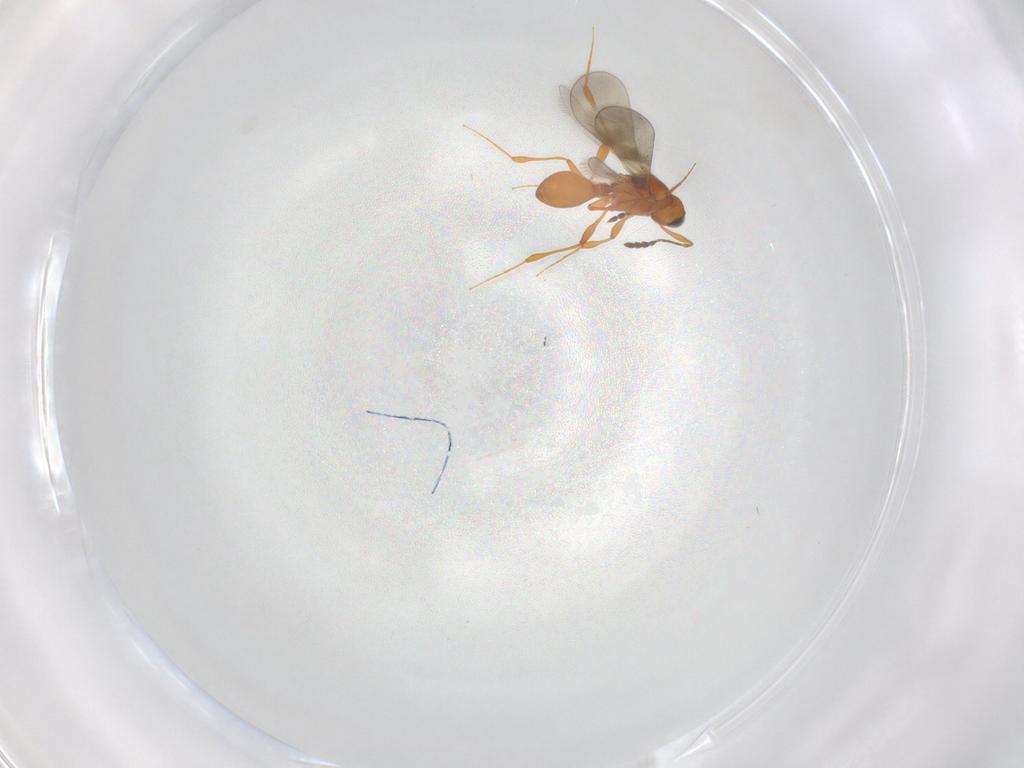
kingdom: Animalia
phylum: Arthropoda
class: Insecta
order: Hymenoptera
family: Platygastridae
